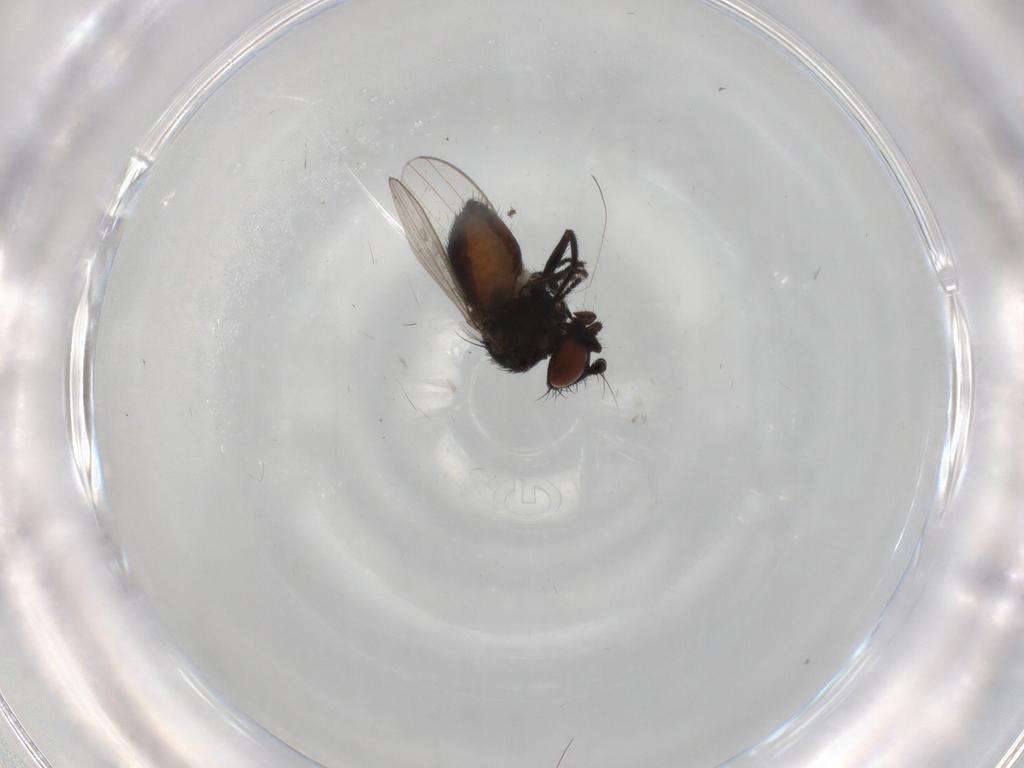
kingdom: Animalia
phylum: Arthropoda
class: Insecta
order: Diptera
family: Milichiidae
